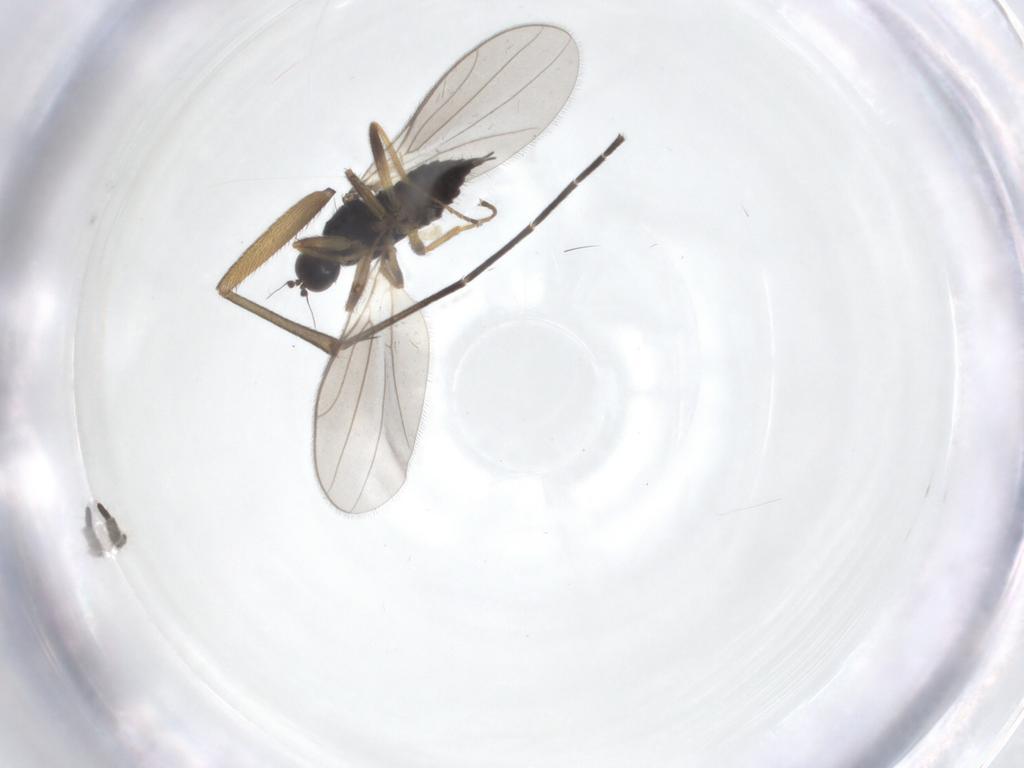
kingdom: Animalia
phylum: Arthropoda
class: Insecta
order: Diptera
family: Hybotidae
